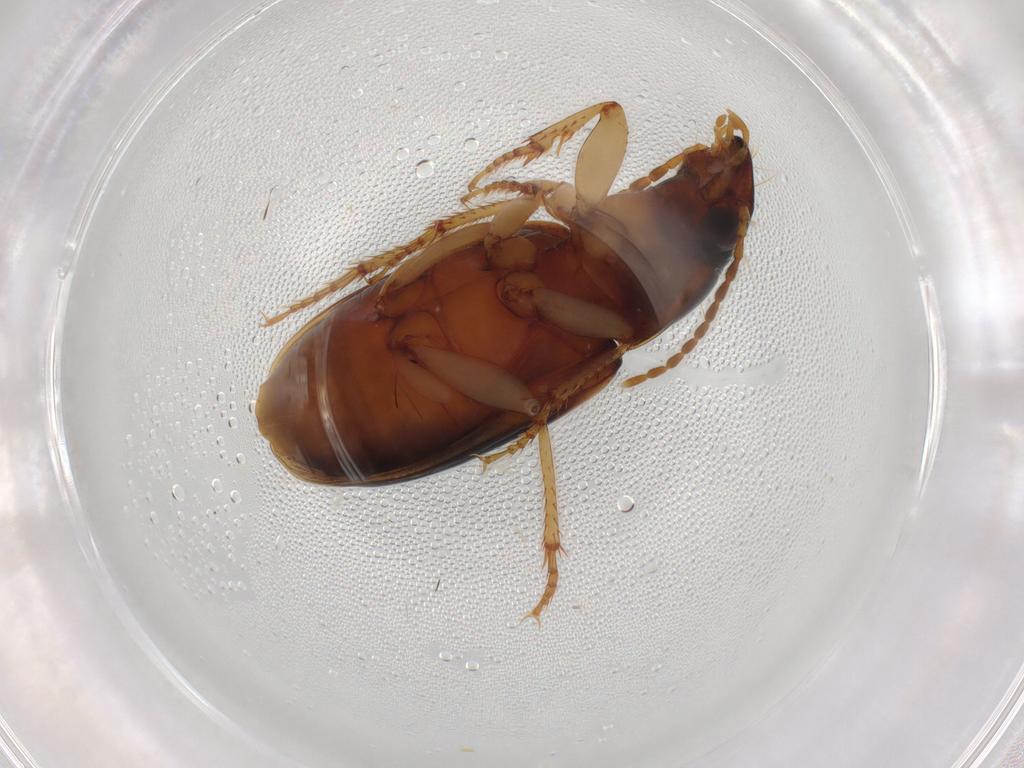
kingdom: Animalia
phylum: Arthropoda
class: Insecta
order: Coleoptera
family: Carabidae
